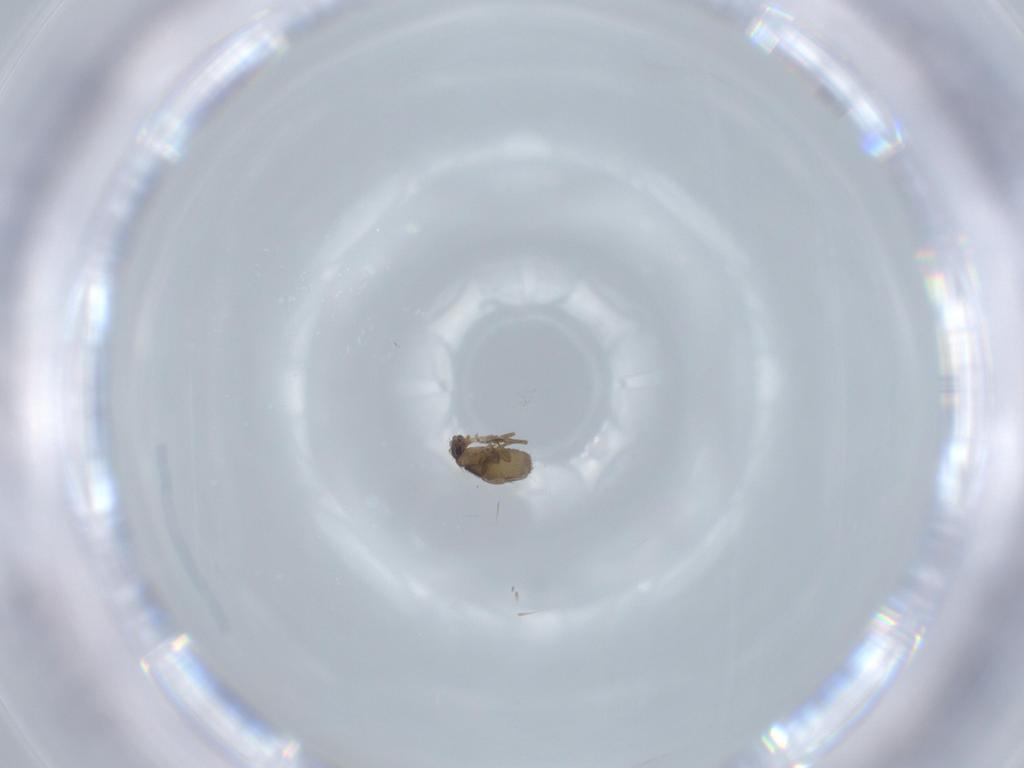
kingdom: Animalia
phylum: Arthropoda
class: Insecta
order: Diptera
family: Phoridae
